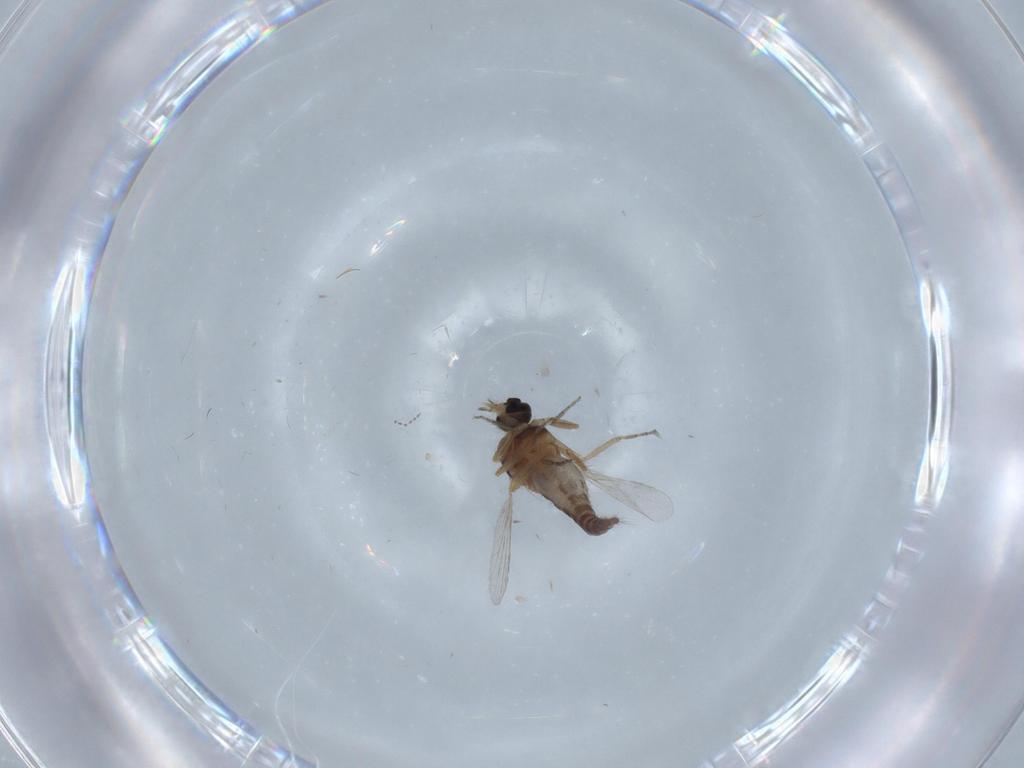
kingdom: Animalia
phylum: Arthropoda
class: Insecta
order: Diptera
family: Ceratopogonidae
